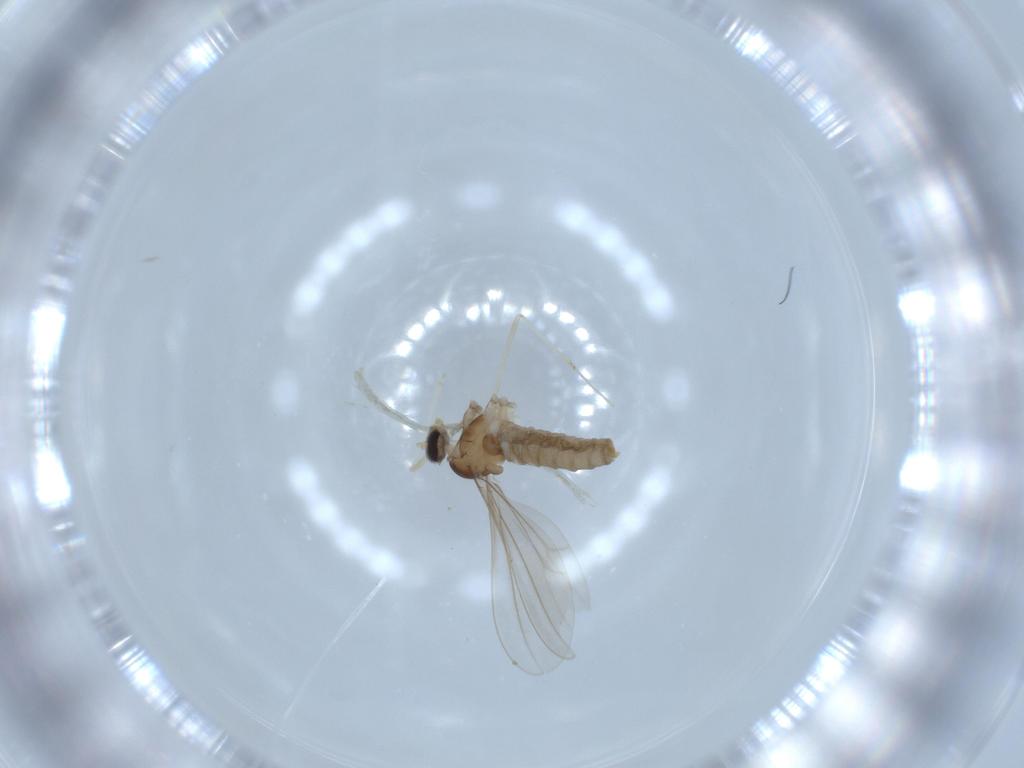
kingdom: Animalia
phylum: Arthropoda
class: Insecta
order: Diptera
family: Cecidomyiidae
